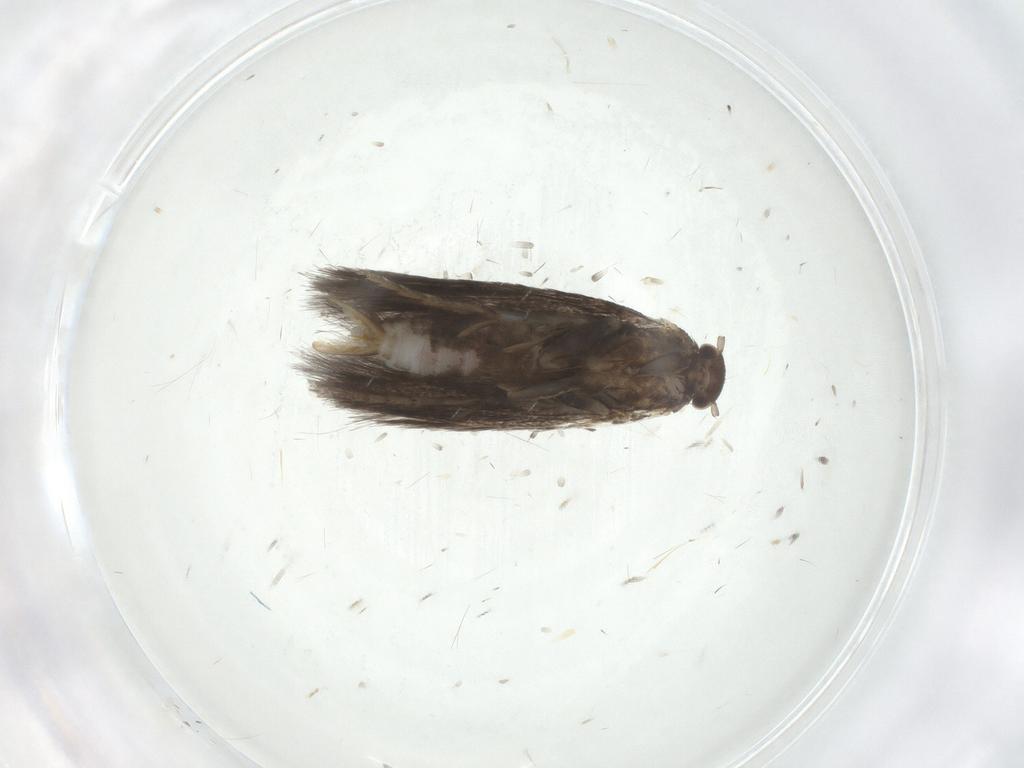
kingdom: Animalia
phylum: Arthropoda
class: Insecta
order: Lepidoptera
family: Elachistidae
